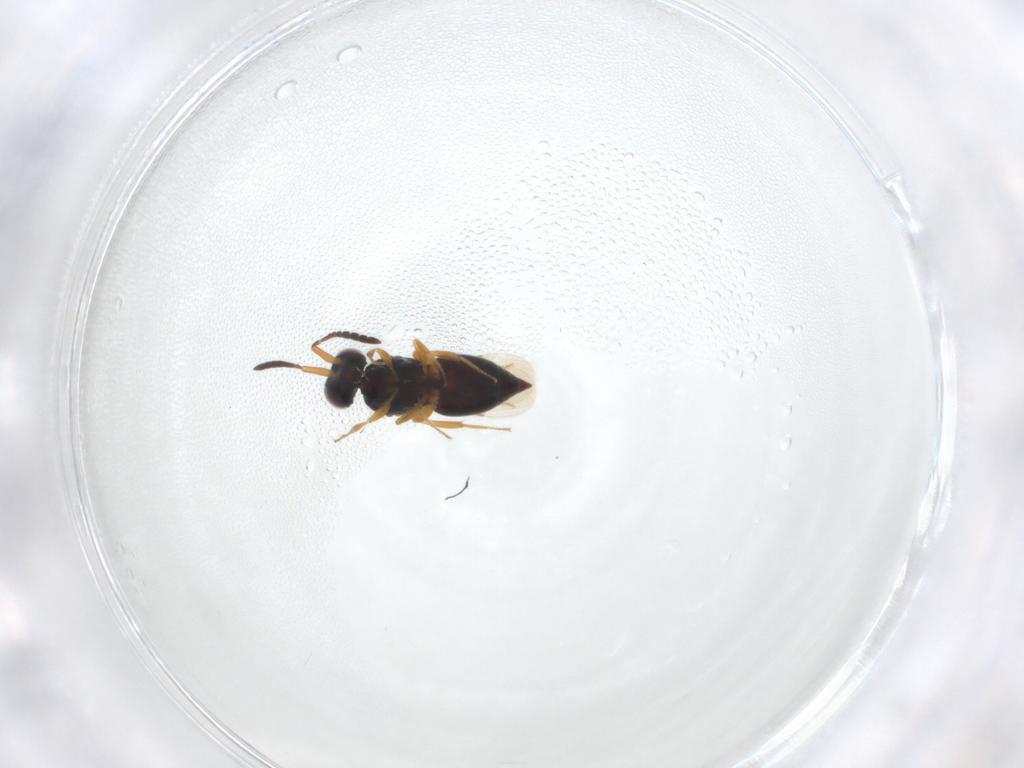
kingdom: Animalia
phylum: Arthropoda
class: Insecta
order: Hymenoptera
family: Ceraphronidae
